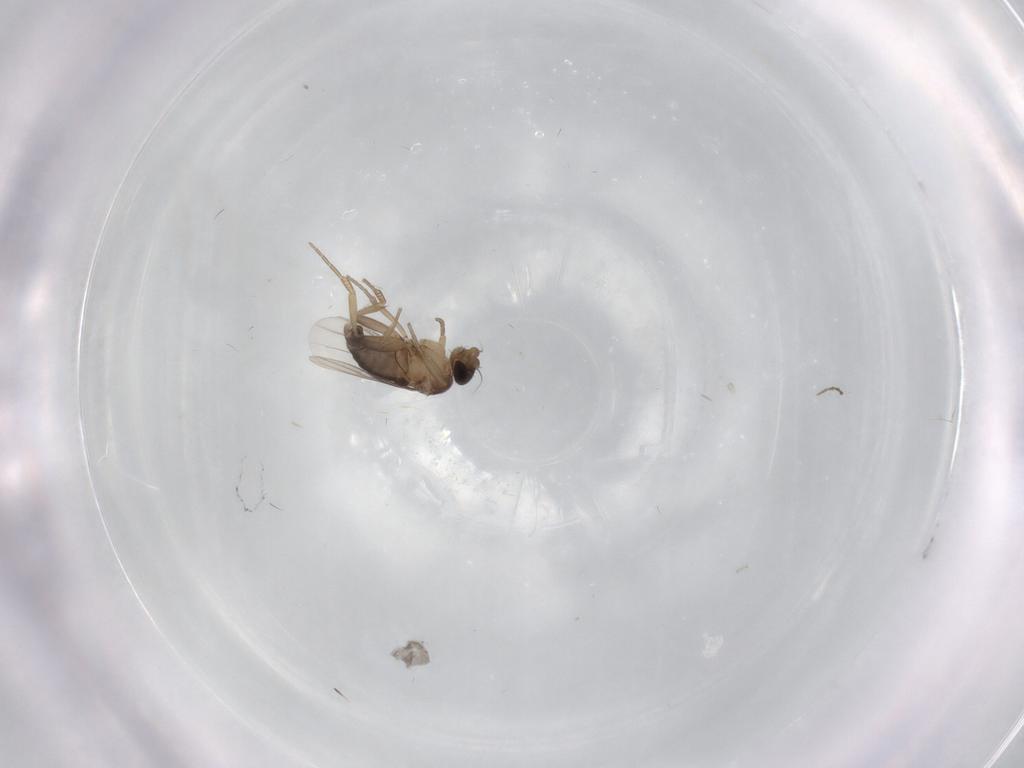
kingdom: Animalia
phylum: Arthropoda
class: Insecta
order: Diptera
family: Phoridae
